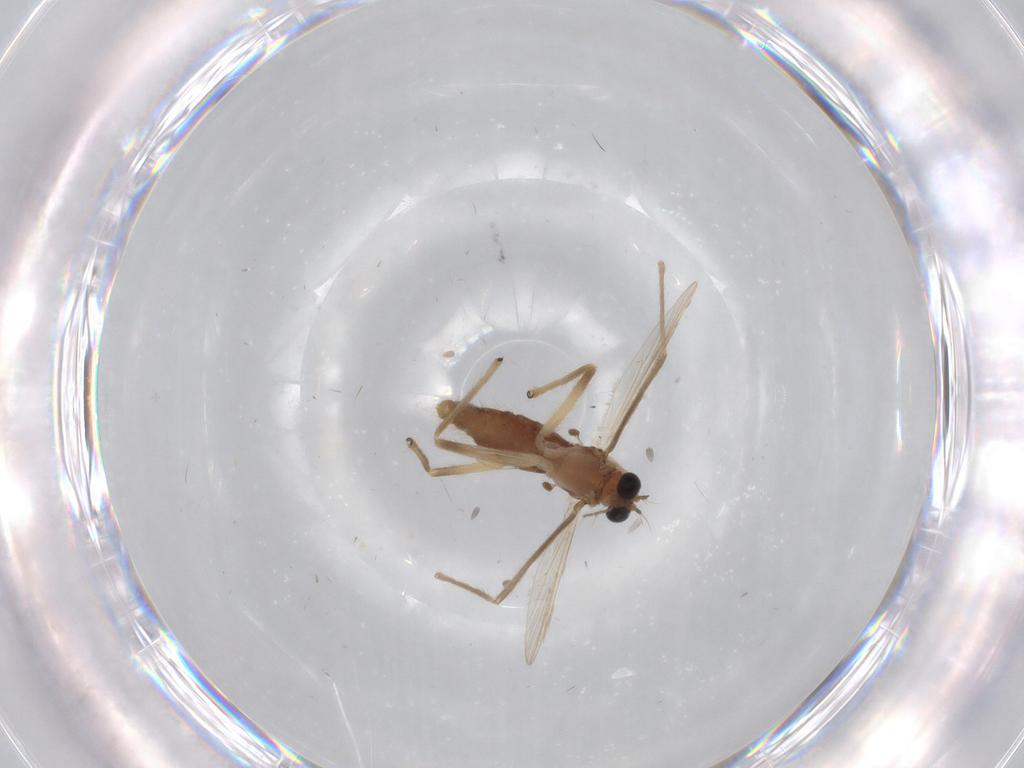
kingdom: Animalia
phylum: Arthropoda
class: Insecta
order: Diptera
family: Chironomidae
